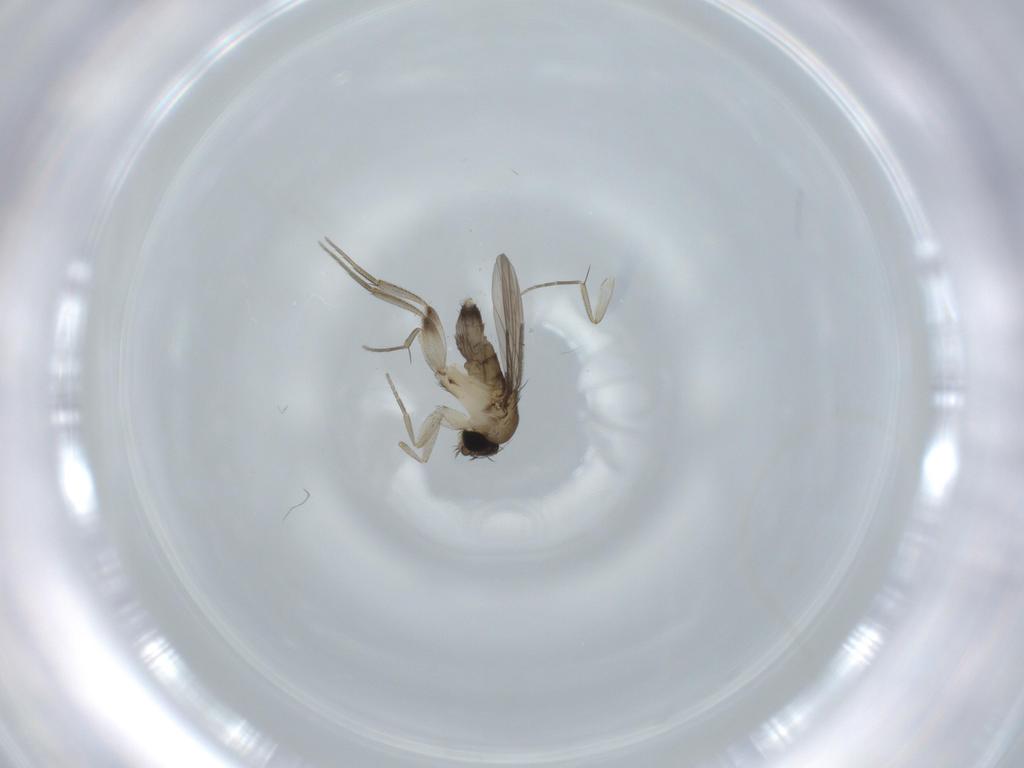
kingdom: Animalia
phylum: Arthropoda
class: Insecta
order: Diptera
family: Phoridae
